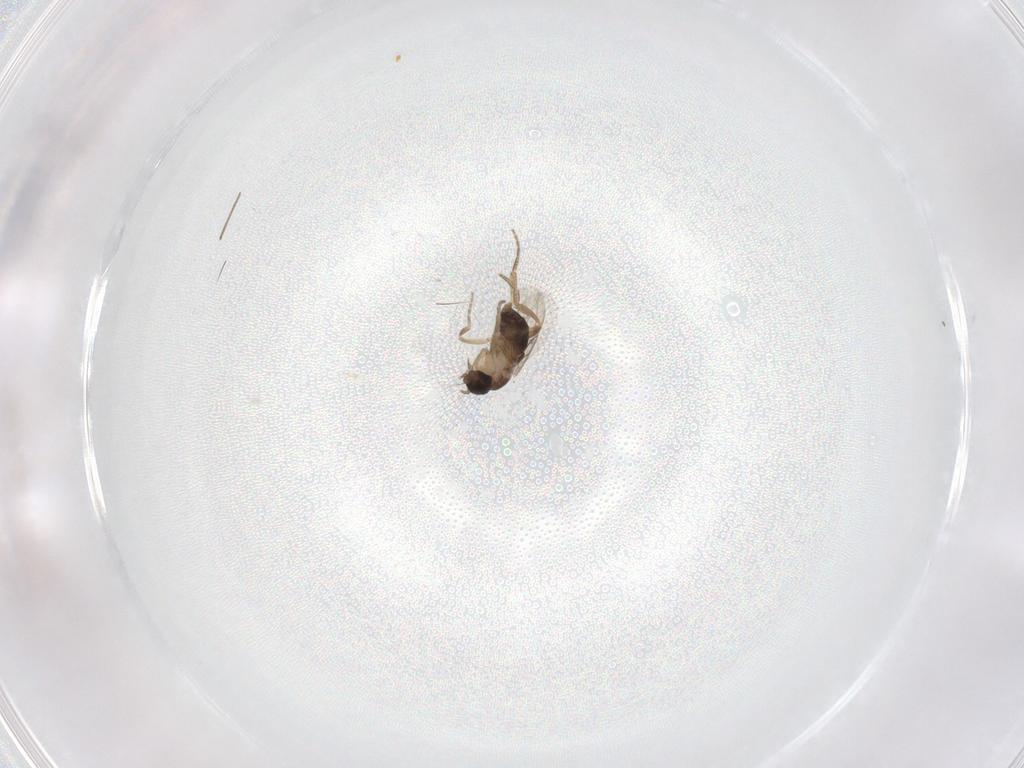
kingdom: Animalia
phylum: Arthropoda
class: Insecta
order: Diptera
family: Phoridae
